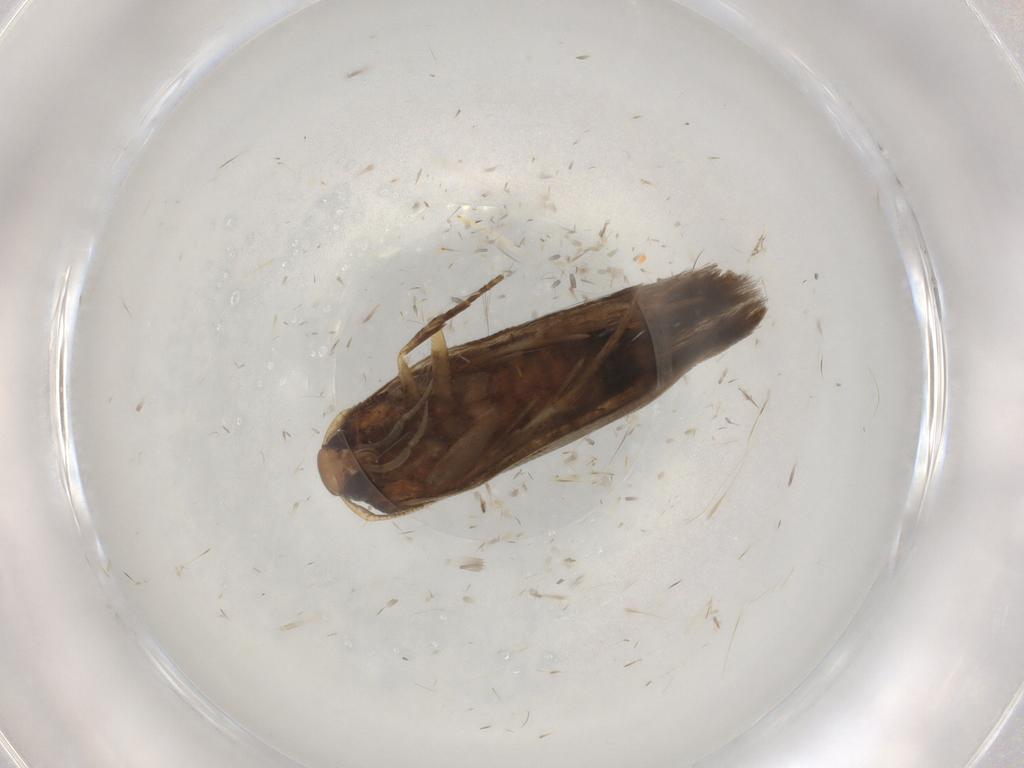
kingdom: Animalia
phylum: Arthropoda
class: Insecta
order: Lepidoptera
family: Cosmopterigidae
